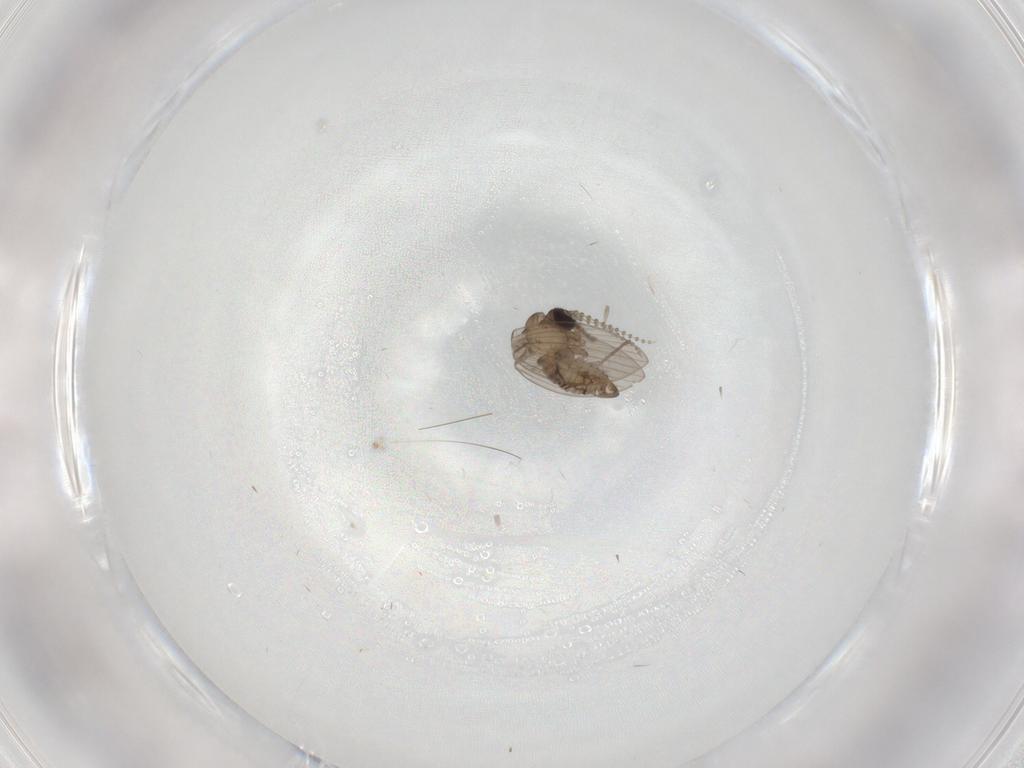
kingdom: Animalia
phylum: Arthropoda
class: Insecta
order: Diptera
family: Psychodidae
